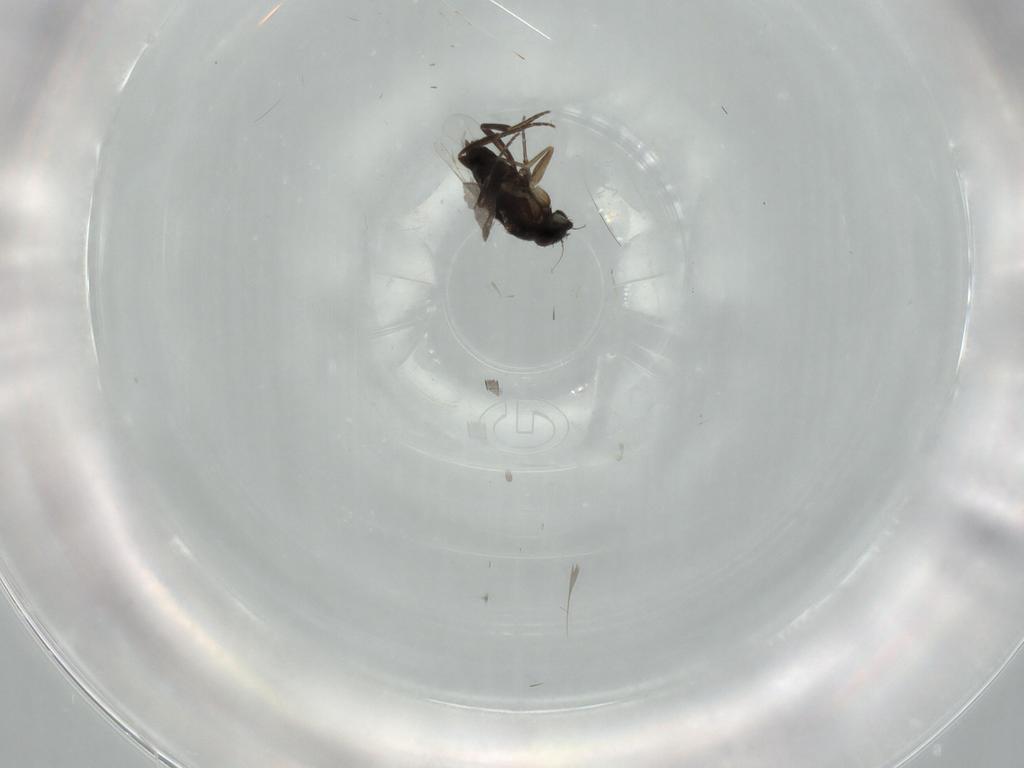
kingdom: Animalia
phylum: Arthropoda
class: Insecta
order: Diptera
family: Phoridae
